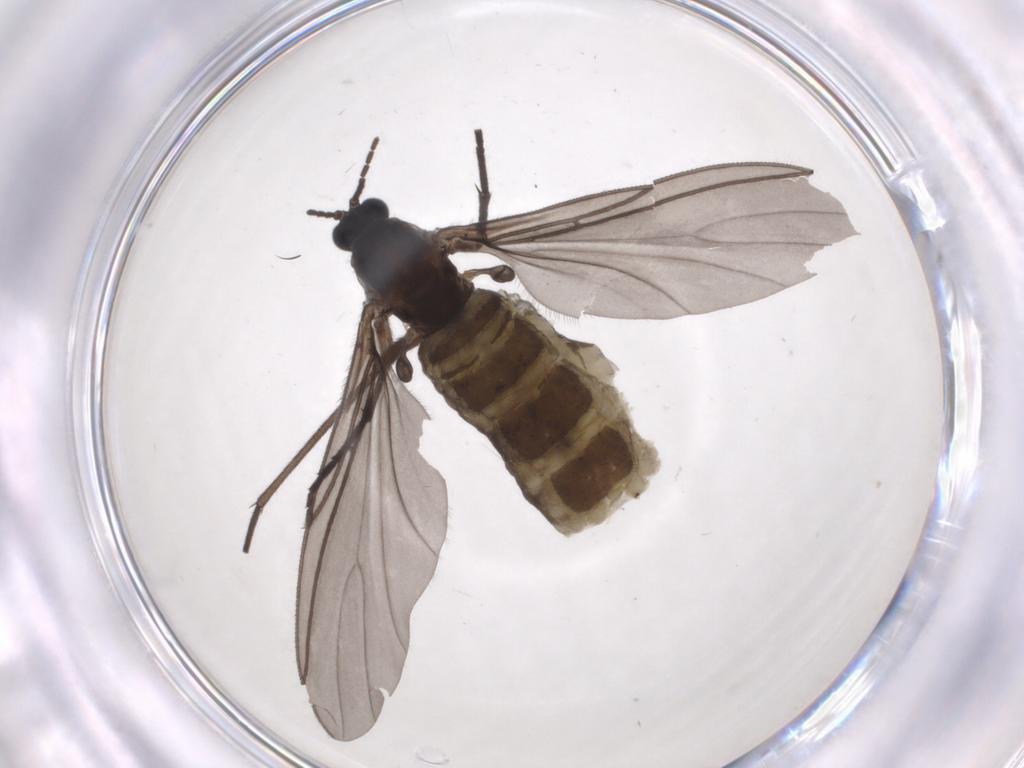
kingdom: Animalia
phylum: Arthropoda
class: Insecta
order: Diptera
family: Sciaridae
